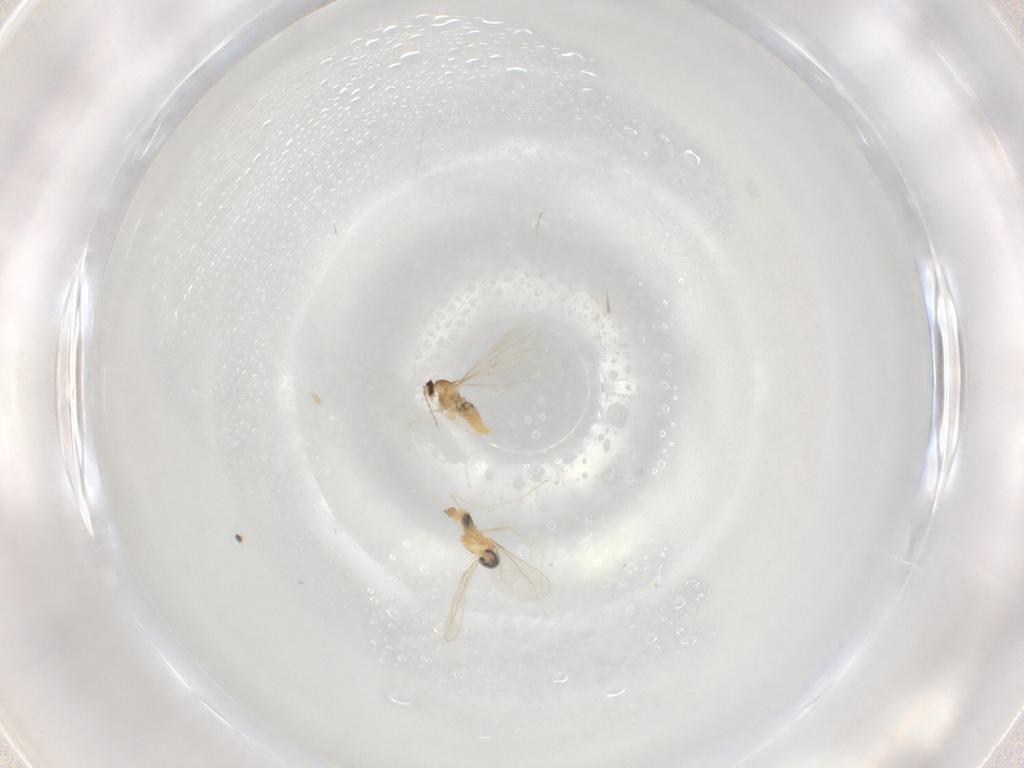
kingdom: Animalia
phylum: Arthropoda
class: Insecta
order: Diptera
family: Cecidomyiidae
